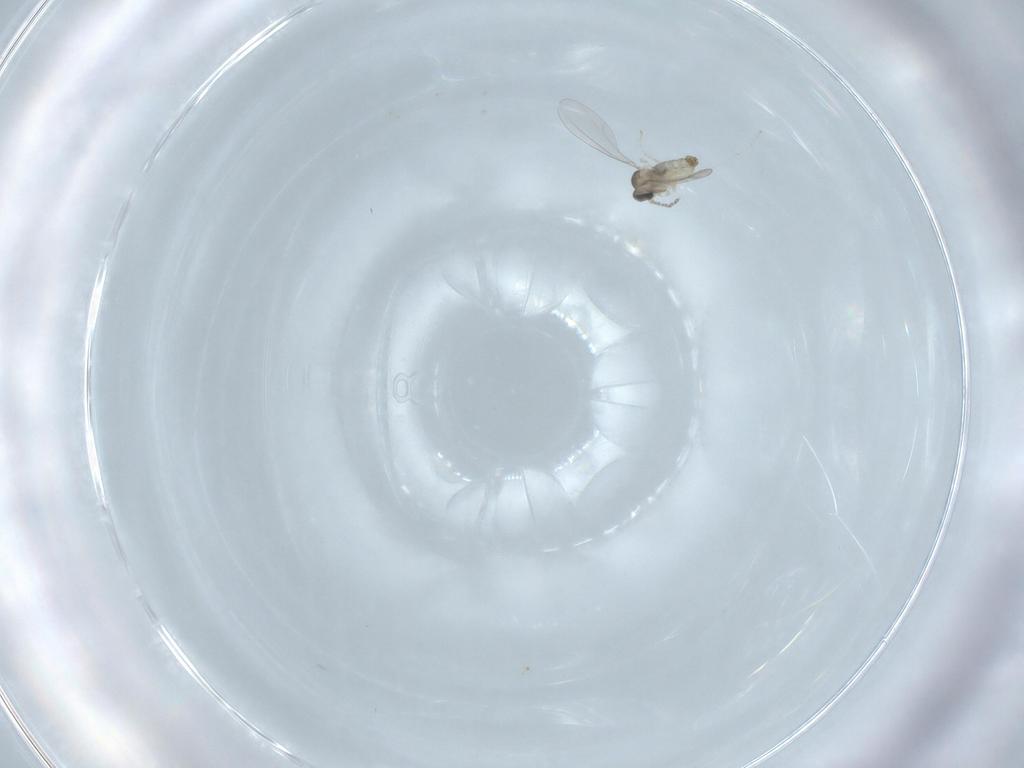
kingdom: Animalia
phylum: Arthropoda
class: Insecta
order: Diptera
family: Cecidomyiidae
